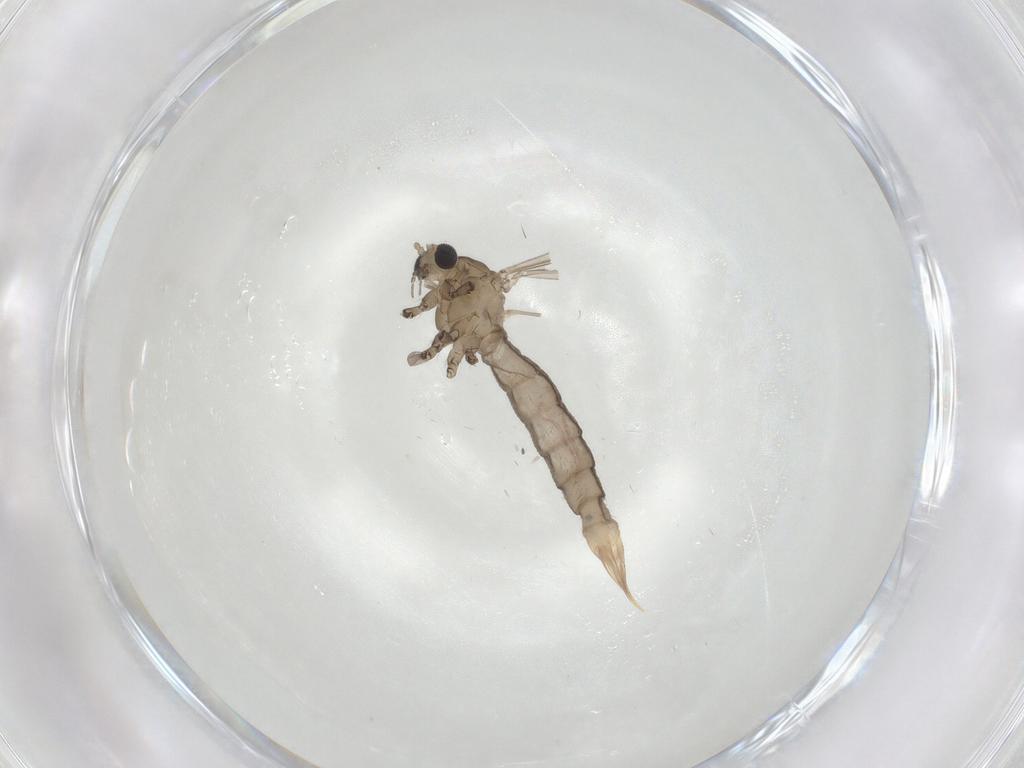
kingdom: Animalia
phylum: Arthropoda
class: Insecta
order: Diptera
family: Limoniidae
